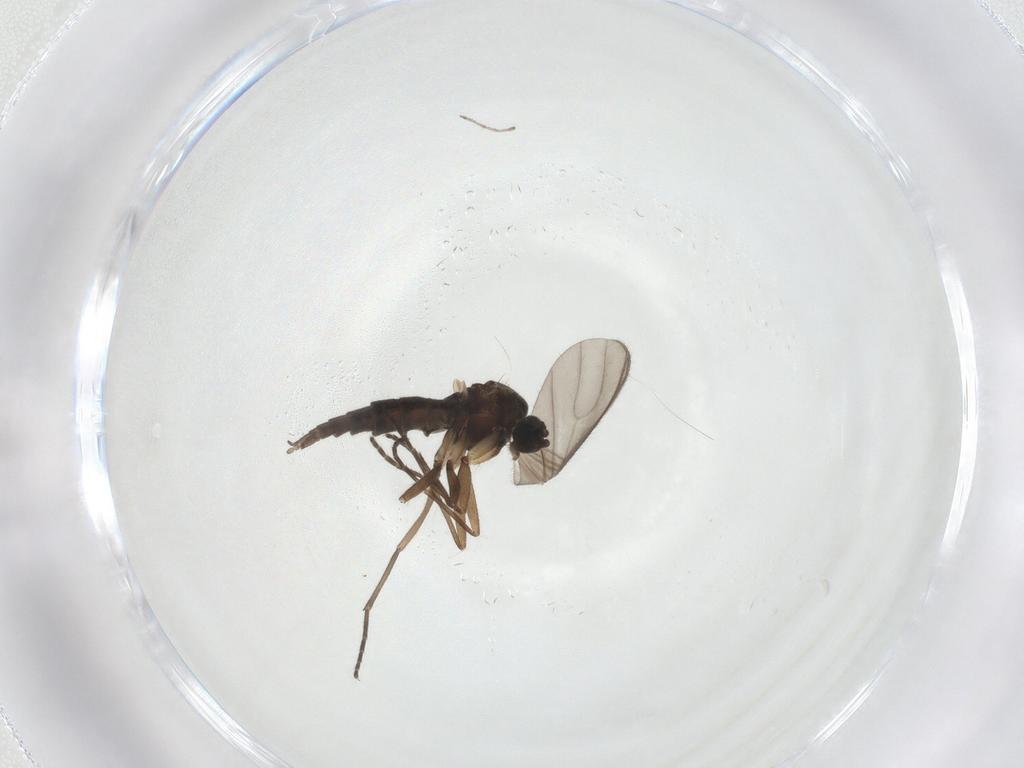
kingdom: Animalia
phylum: Arthropoda
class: Insecta
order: Diptera
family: Sciaridae
